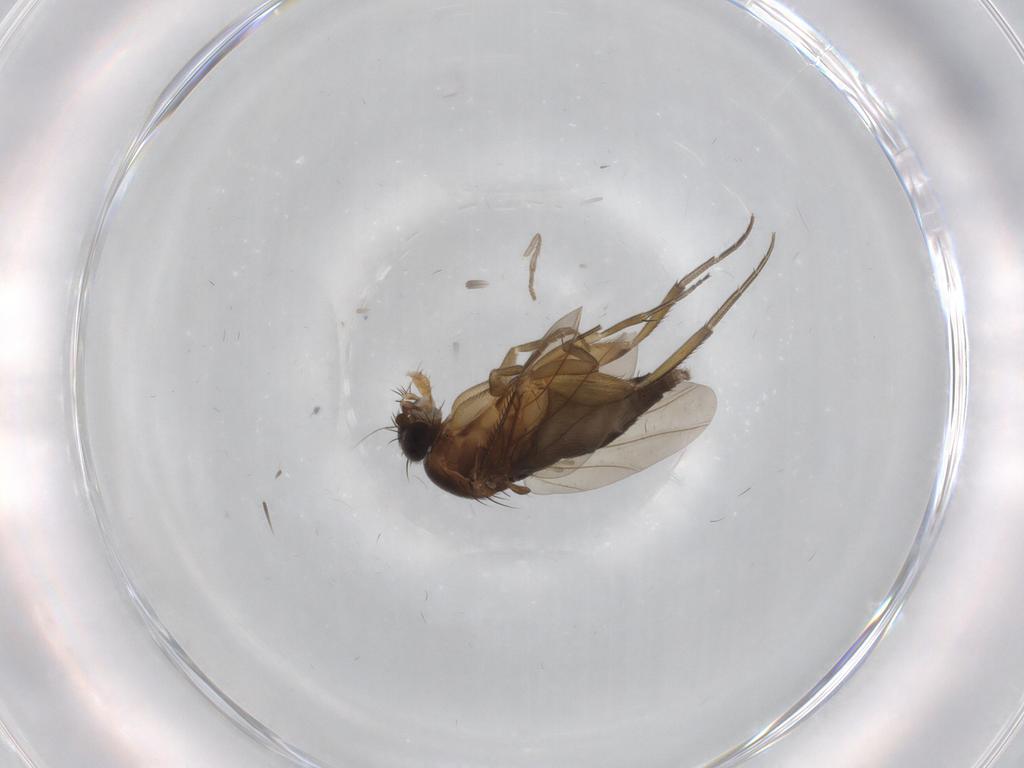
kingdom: Animalia
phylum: Arthropoda
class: Insecta
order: Diptera
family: Phoridae
